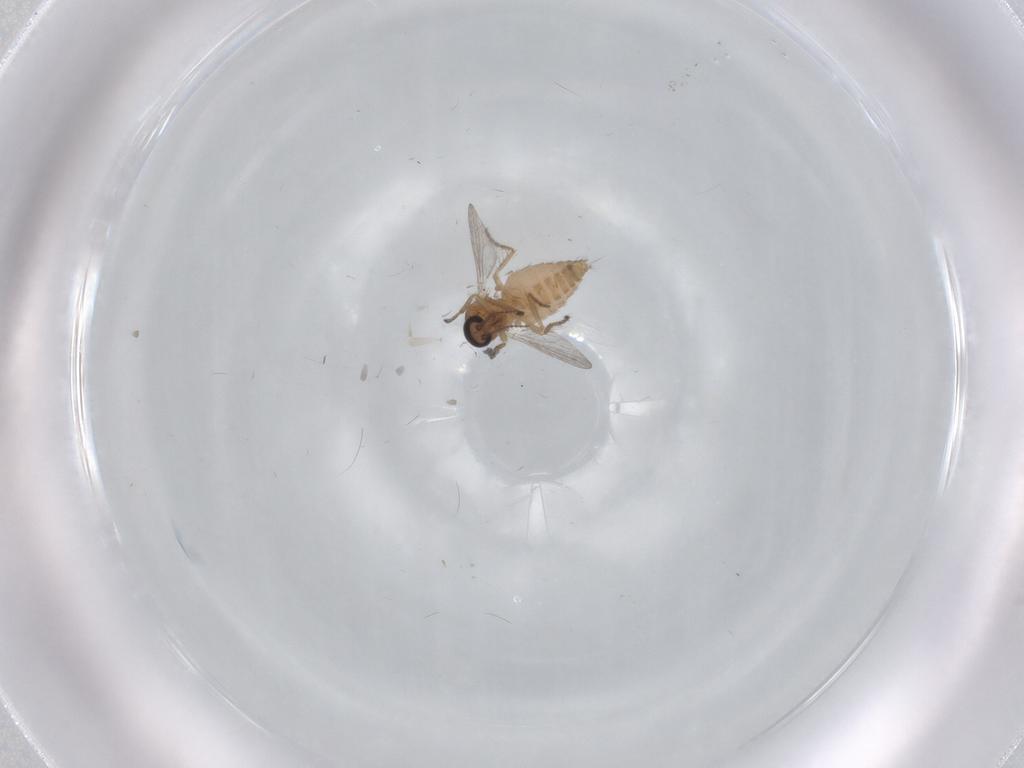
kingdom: Animalia
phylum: Arthropoda
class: Insecta
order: Diptera
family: Ceratopogonidae
